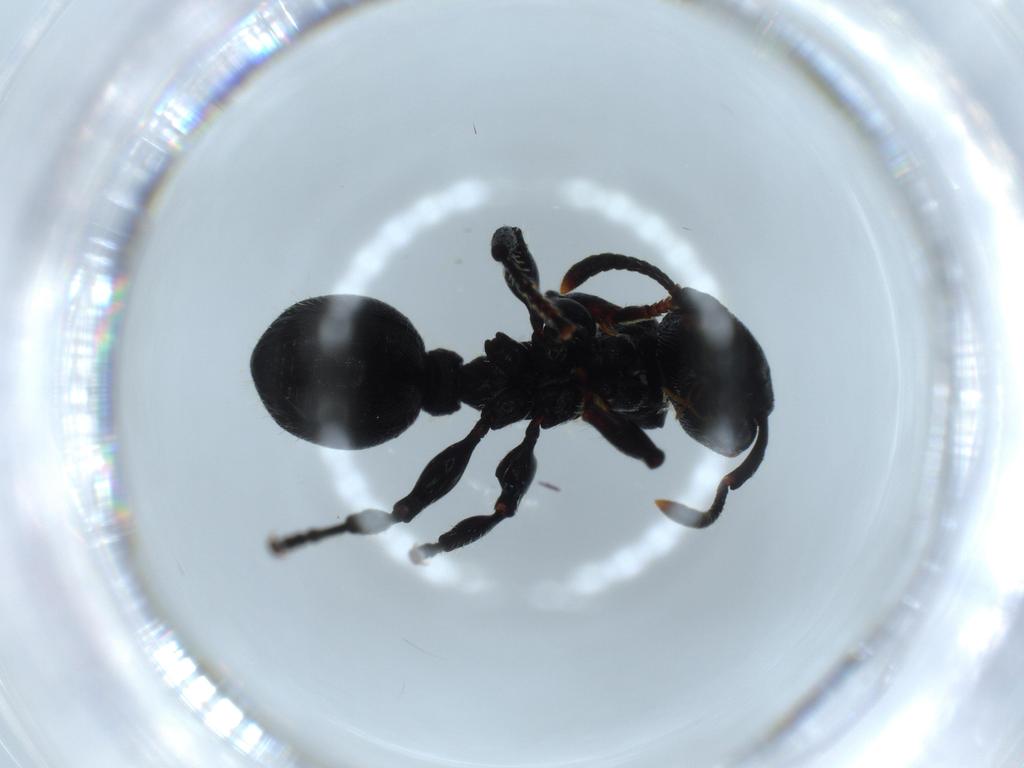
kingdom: Animalia
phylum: Arthropoda
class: Insecta
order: Hymenoptera
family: Formicidae
